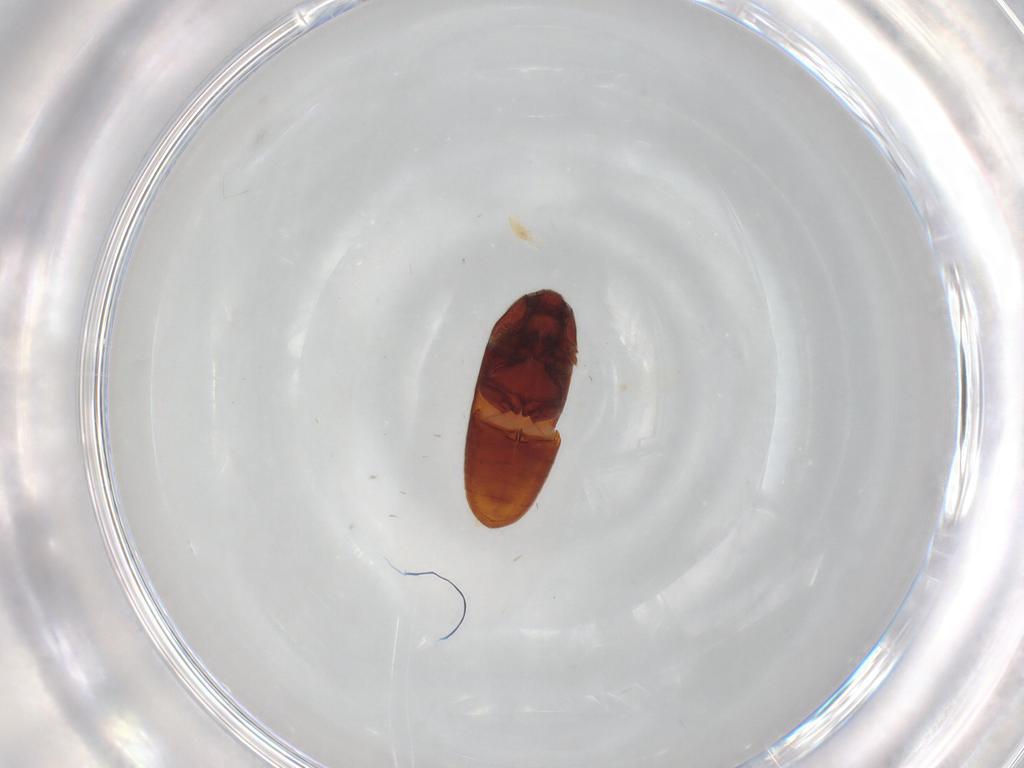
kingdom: Animalia
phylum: Arthropoda
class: Insecta
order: Coleoptera
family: Throscidae
